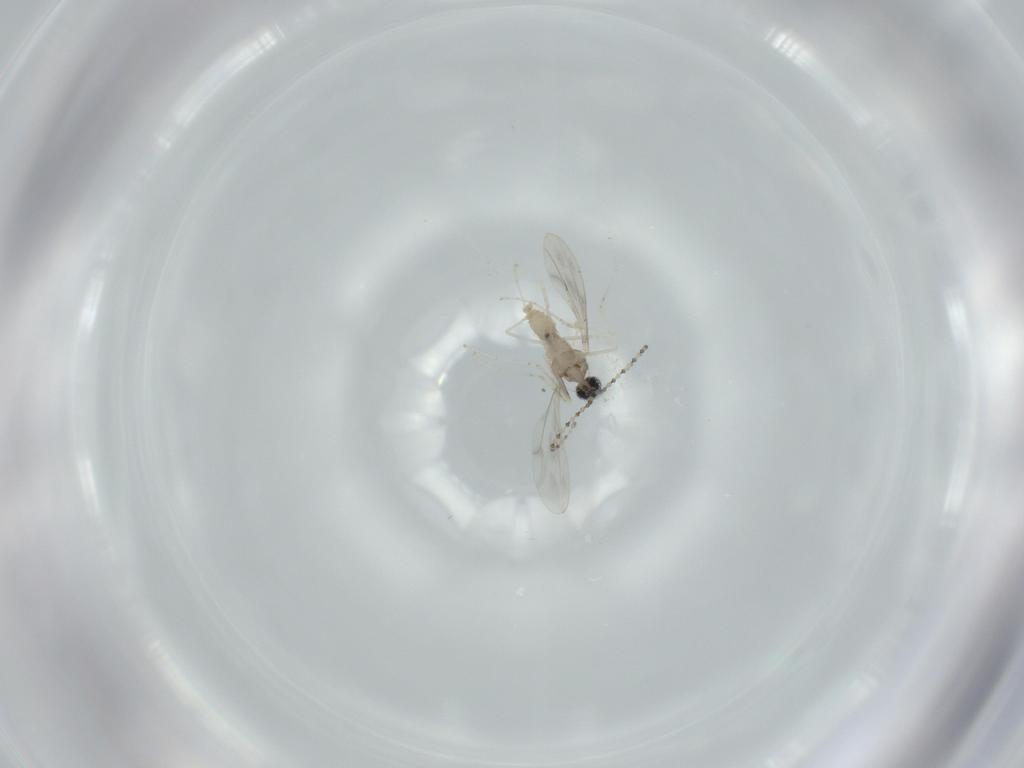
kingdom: Animalia
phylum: Arthropoda
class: Insecta
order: Diptera
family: Cecidomyiidae
